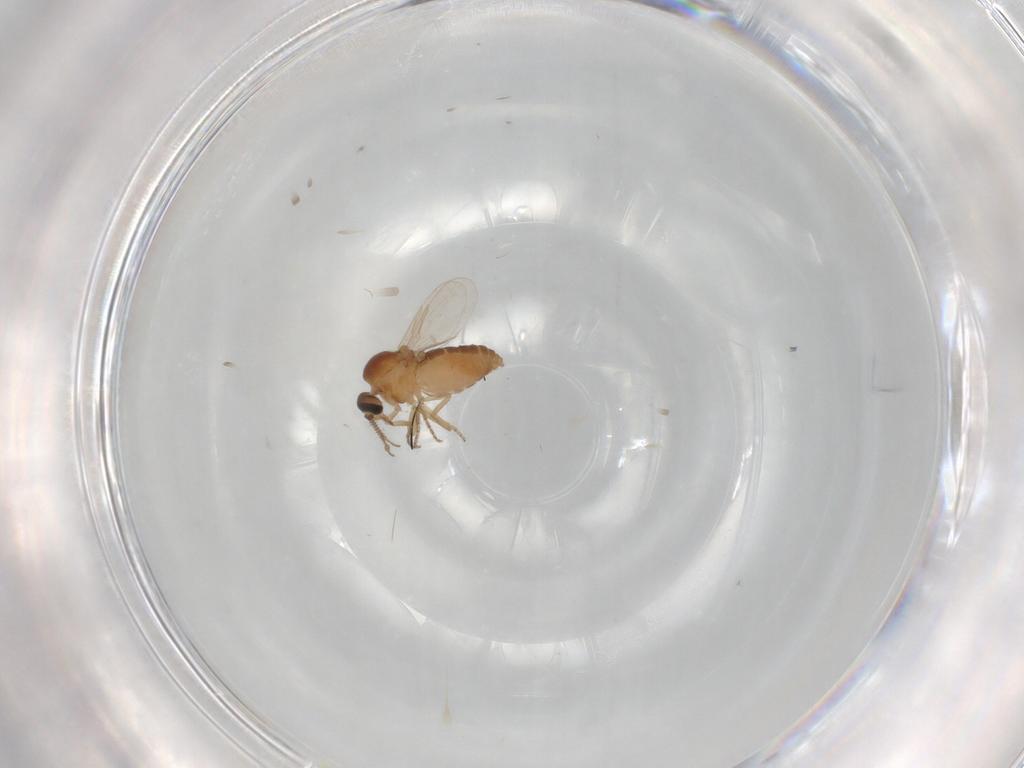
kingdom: Animalia
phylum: Arthropoda
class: Insecta
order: Diptera
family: Ceratopogonidae
